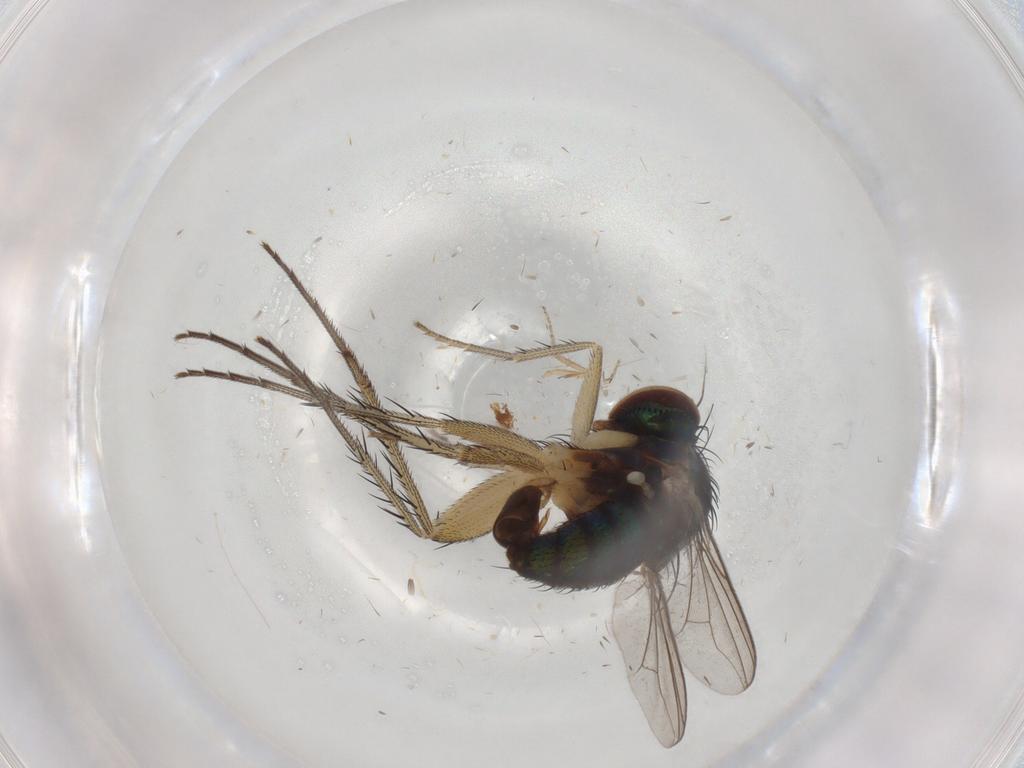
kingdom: Animalia
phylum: Arthropoda
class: Insecta
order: Diptera
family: Dolichopodidae
